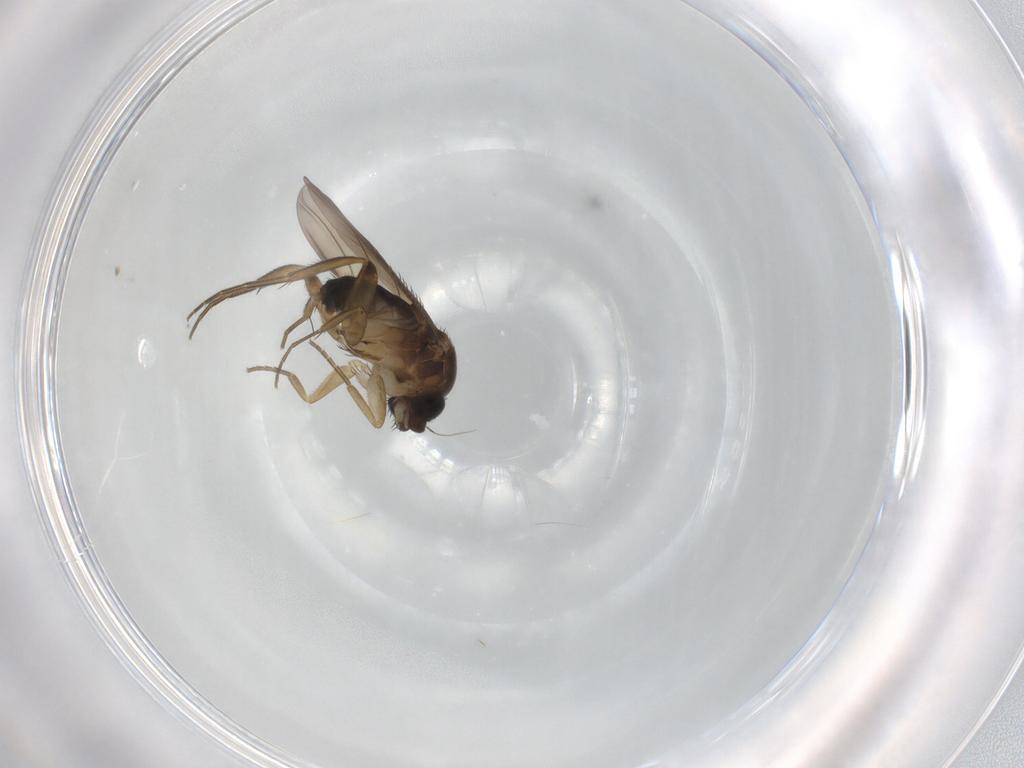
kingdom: Animalia
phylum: Arthropoda
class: Insecta
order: Diptera
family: Phoridae
